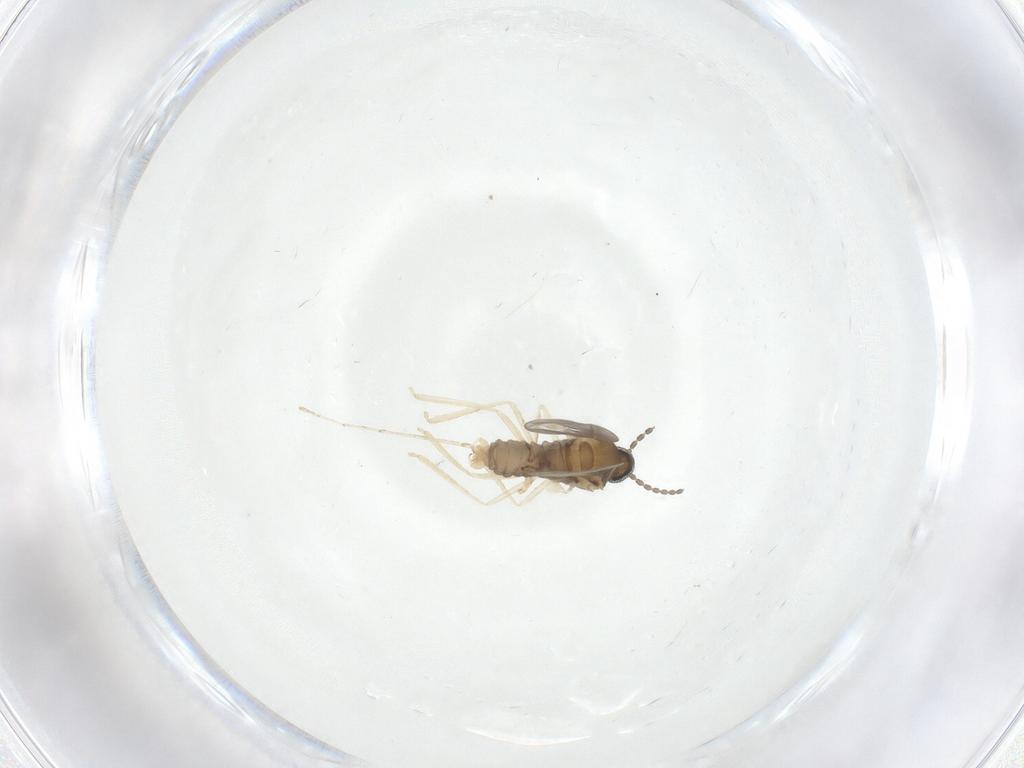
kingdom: Animalia
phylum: Arthropoda
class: Insecta
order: Diptera
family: Cecidomyiidae
